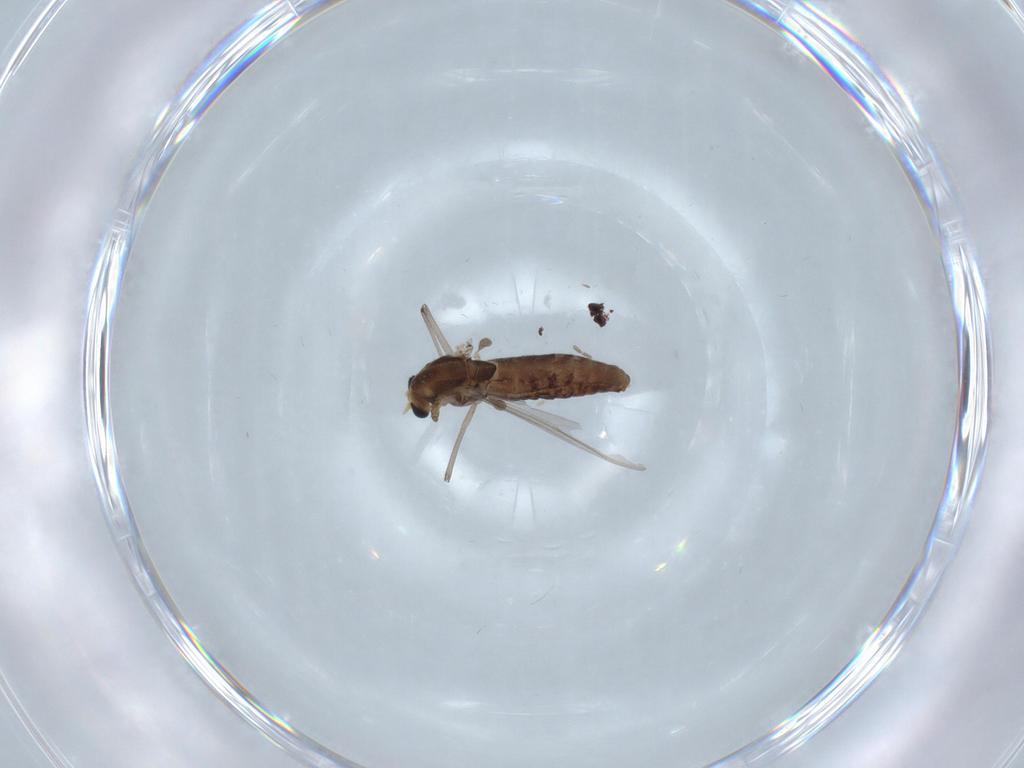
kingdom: Animalia
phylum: Arthropoda
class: Insecta
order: Diptera
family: Chironomidae
